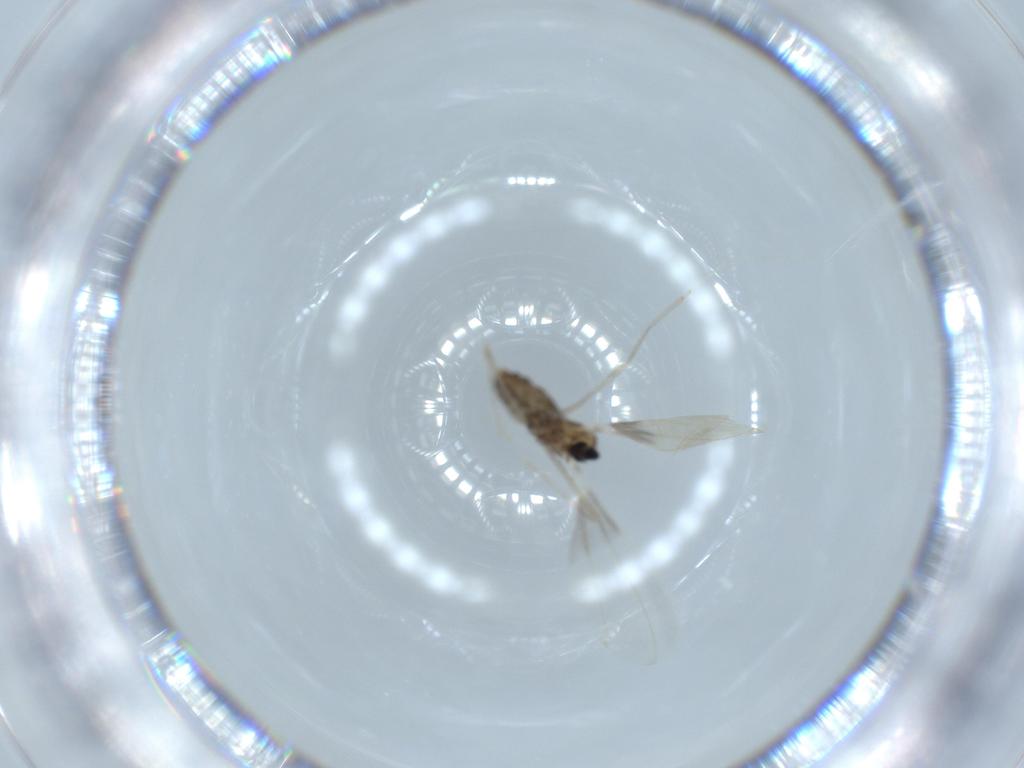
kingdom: Animalia
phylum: Arthropoda
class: Insecta
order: Diptera
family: Cecidomyiidae
